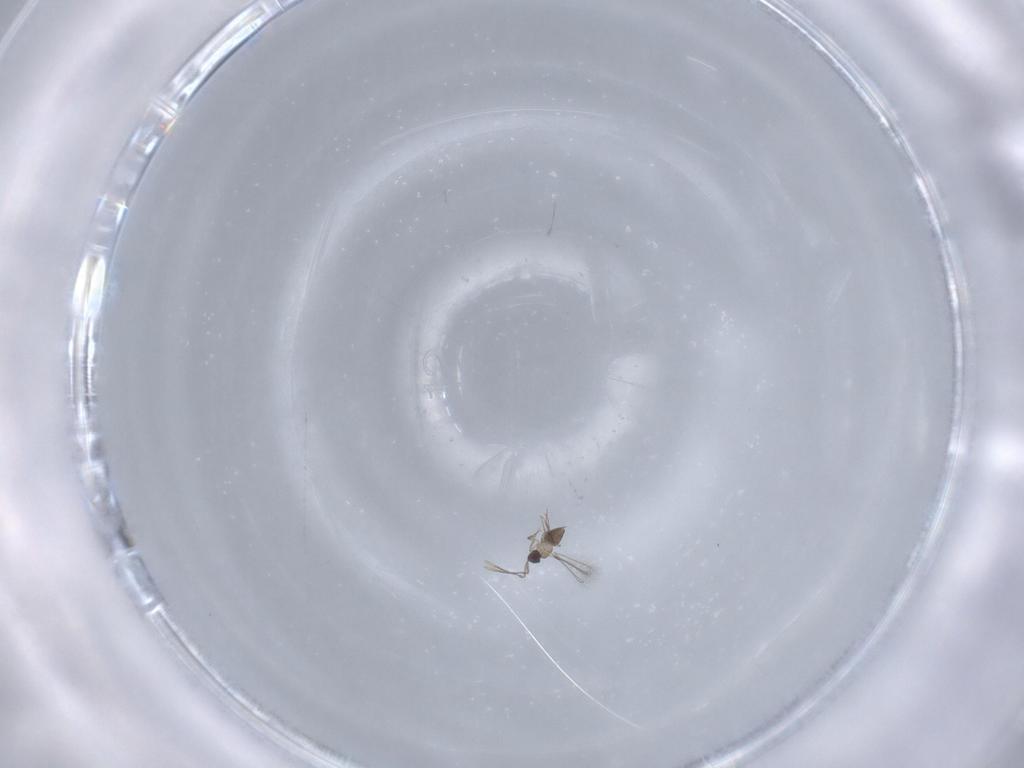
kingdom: Animalia
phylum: Arthropoda
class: Insecta
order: Hymenoptera
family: Mymaridae
